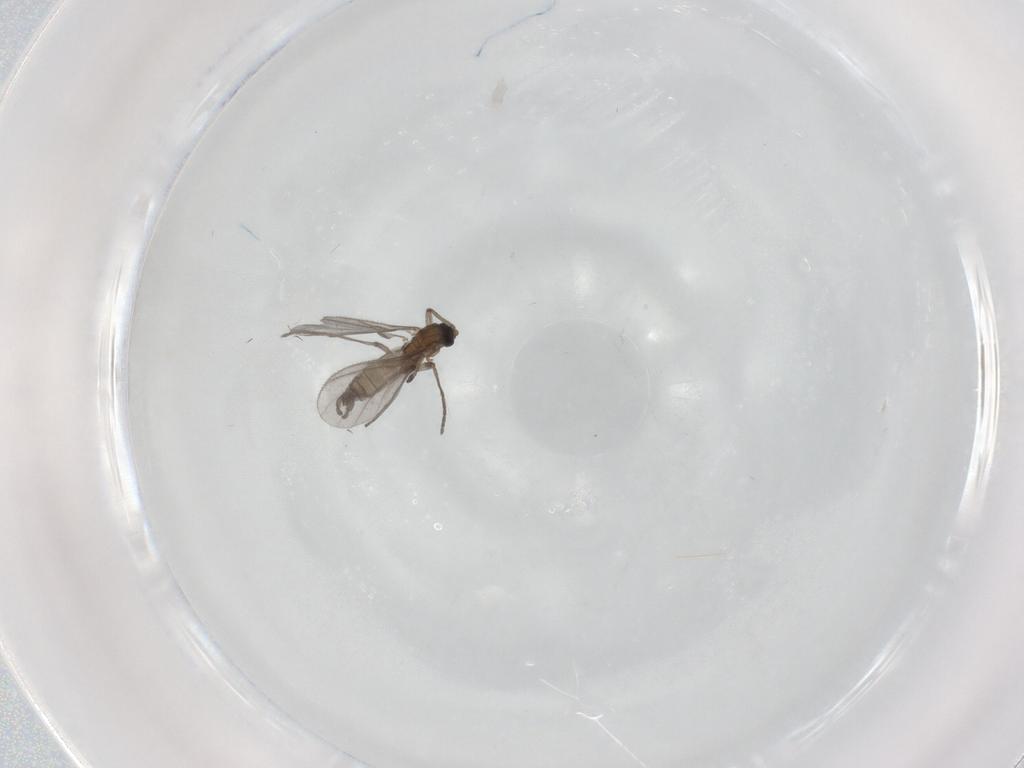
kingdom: Animalia
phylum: Arthropoda
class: Insecta
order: Diptera
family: Sciaridae
